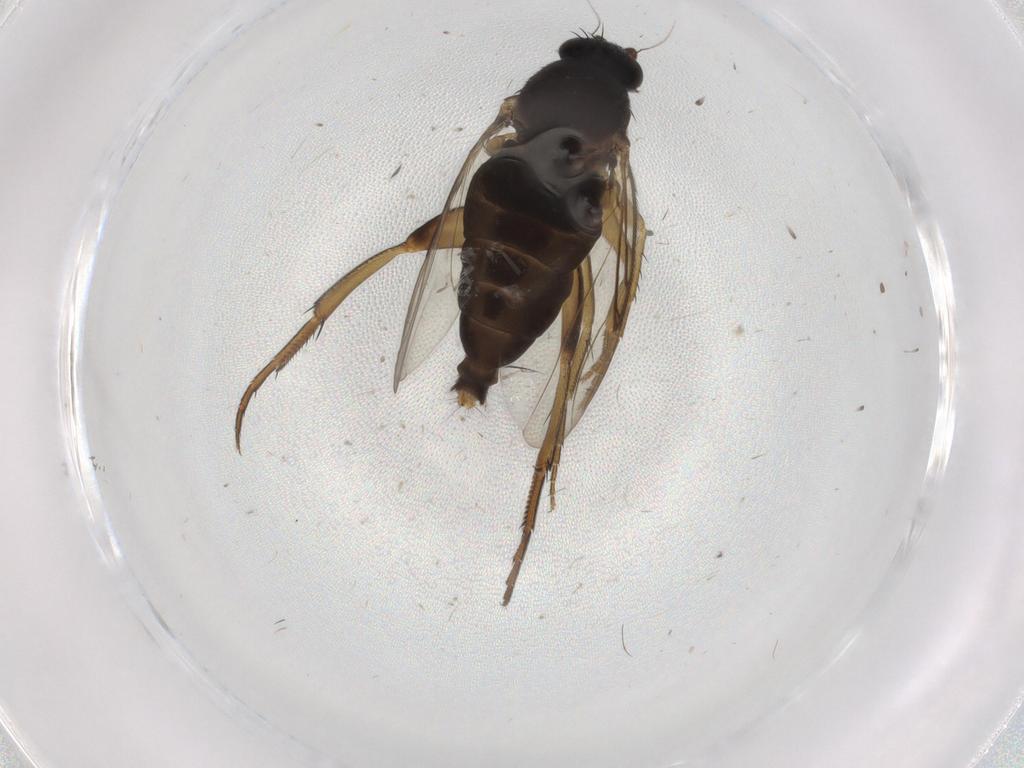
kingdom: Animalia
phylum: Arthropoda
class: Insecta
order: Diptera
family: Phoridae
